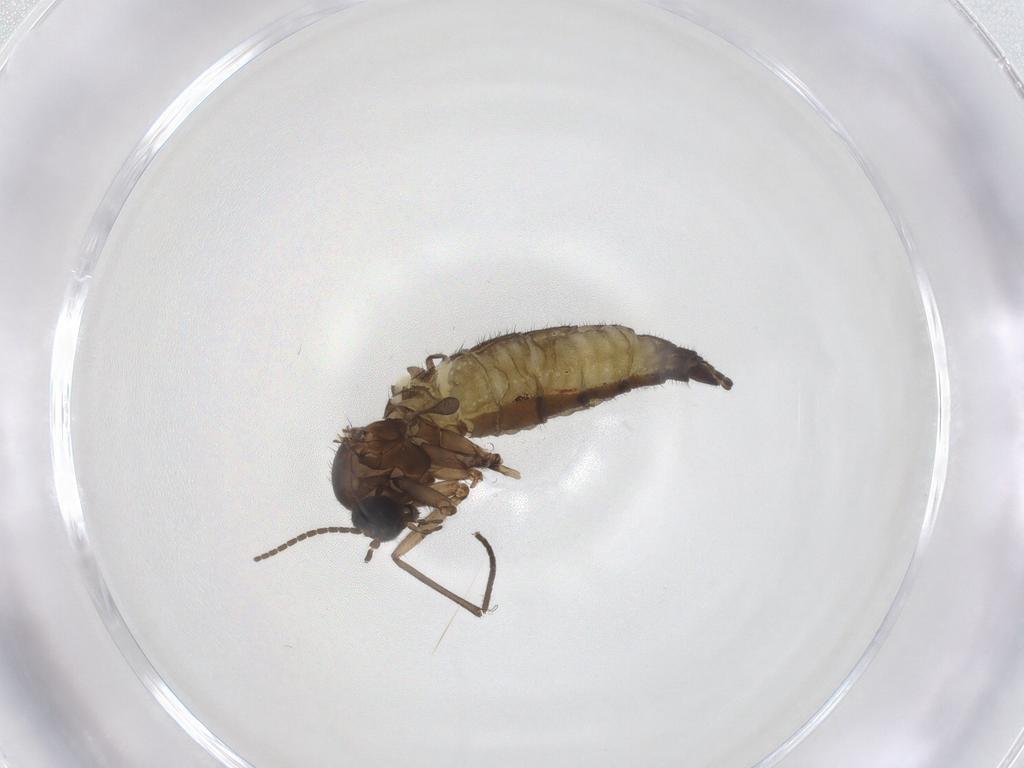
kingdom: Animalia
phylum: Arthropoda
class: Insecta
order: Diptera
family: Sciaridae
